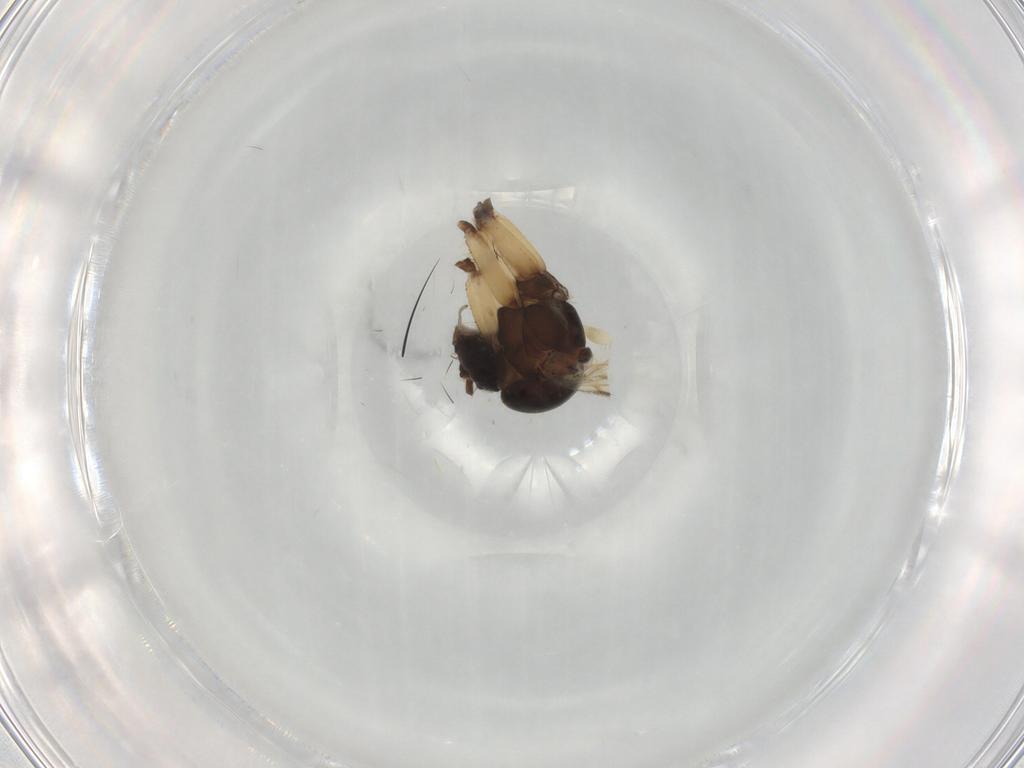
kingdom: Animalia
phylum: Arthropoda
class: Insecta
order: Diptera
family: Mycetophilidae
